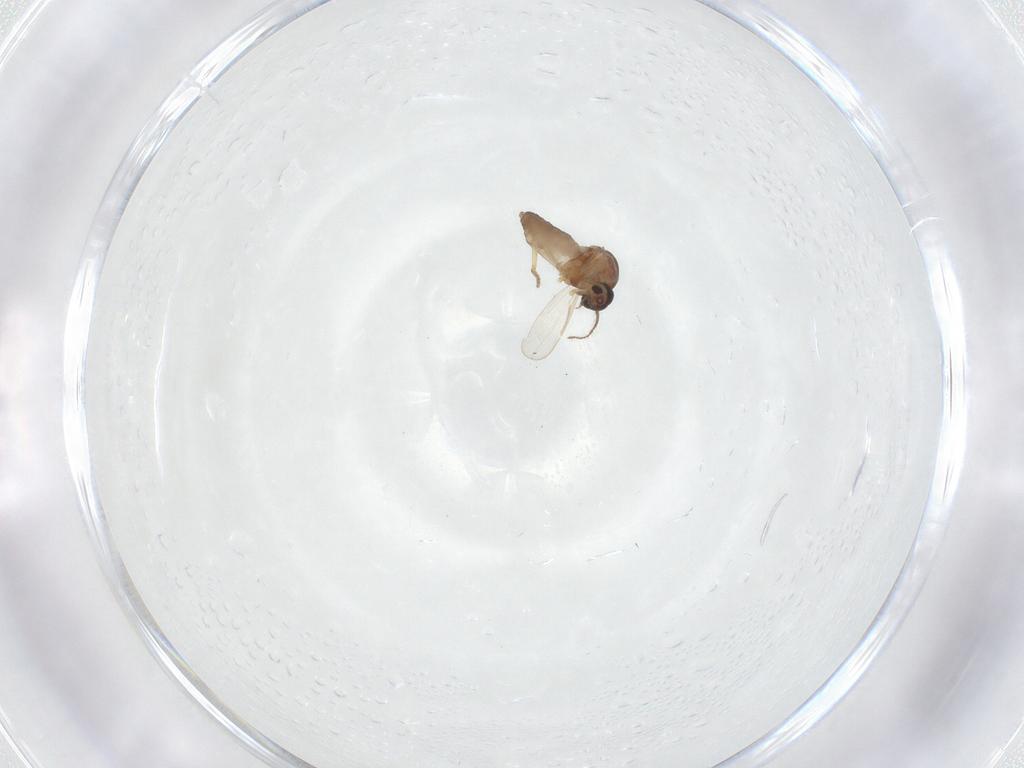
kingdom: Animalia
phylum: Arthropoda
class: Insecta
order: Diptera
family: Ceratopogonidae
